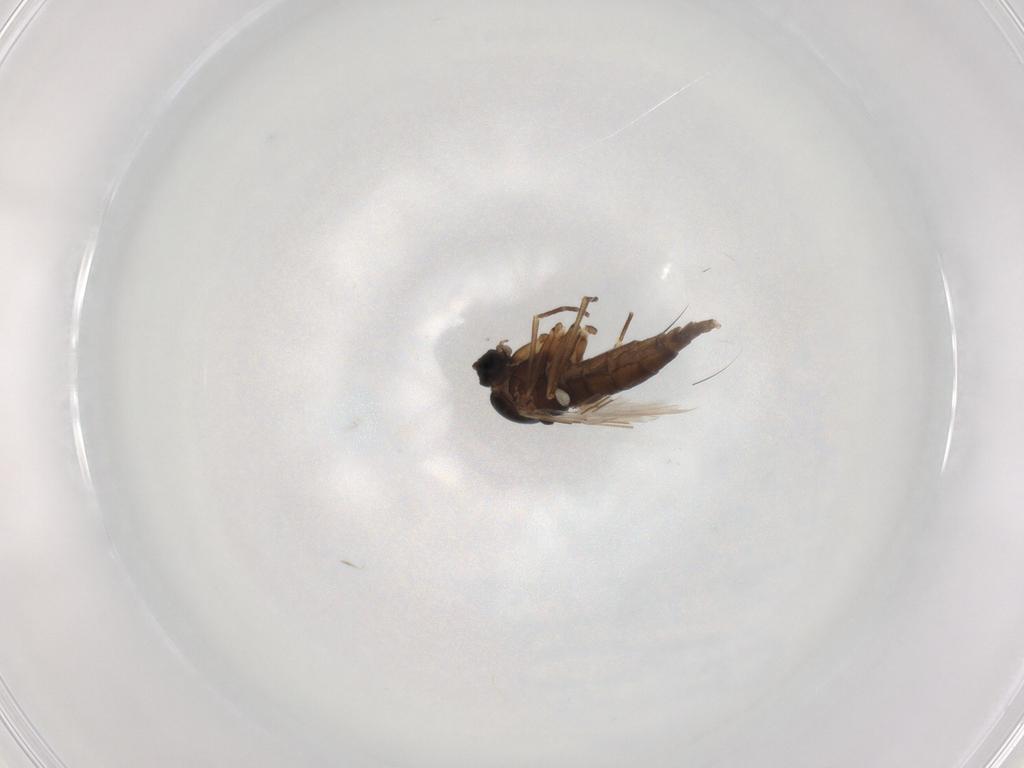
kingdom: Animalia
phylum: Arthropoda
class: Insecta
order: Diptera
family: Sciaridae
